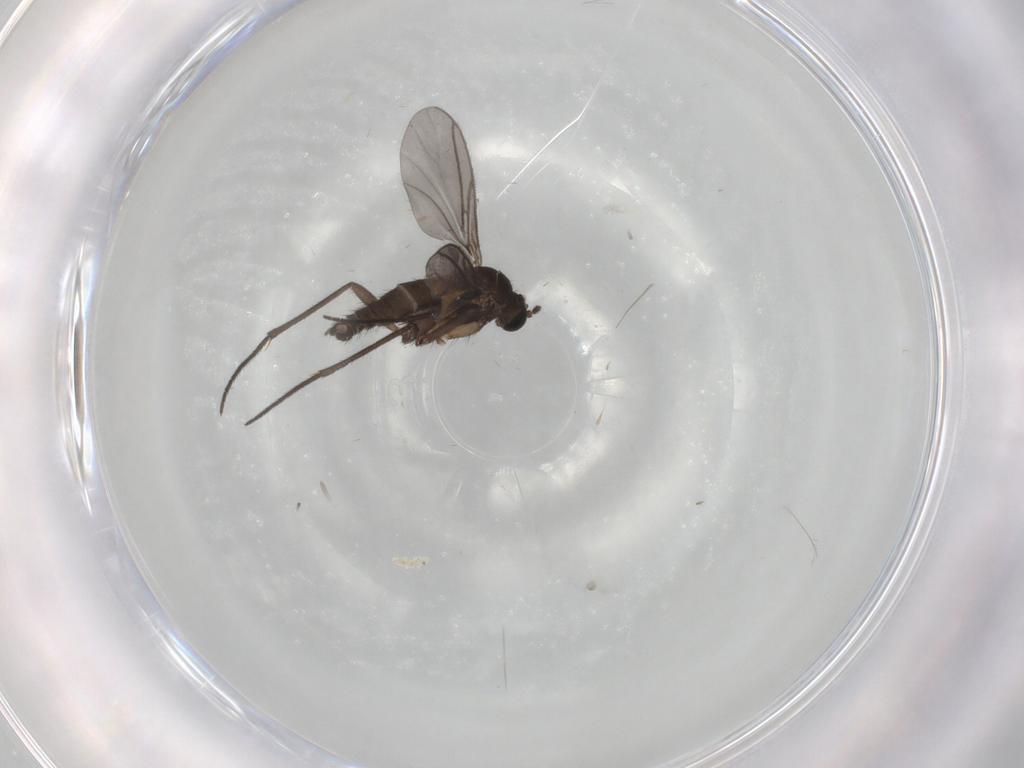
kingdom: Animalia
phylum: Arthropoda
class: Insecta
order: Diptera
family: Sciaridae
